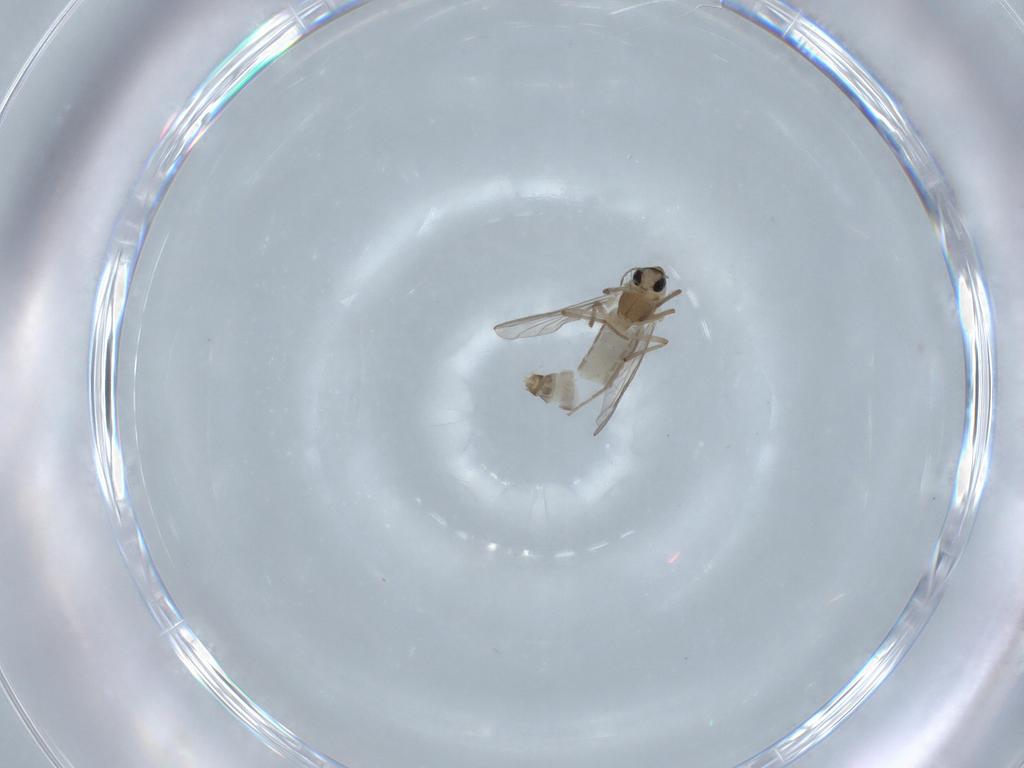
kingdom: Animalia
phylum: Arthropoda
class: Insecta
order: Diptera
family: Chironomidae
